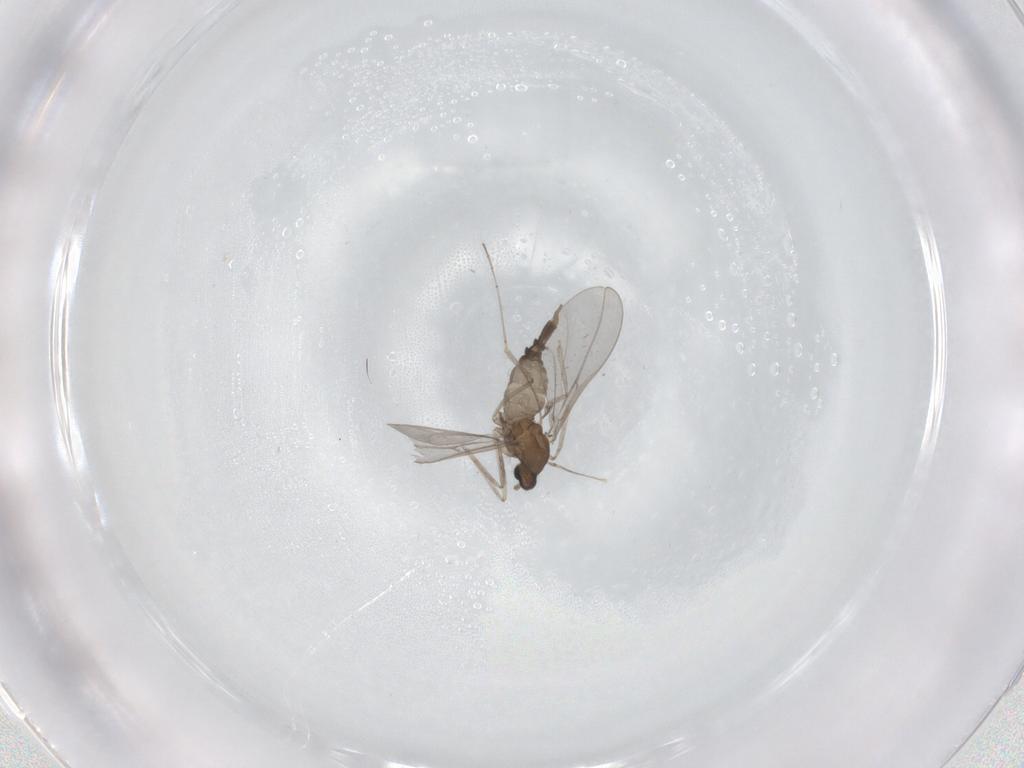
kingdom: Animalia
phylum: Arthropoda
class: Insecta
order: Diptera
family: Cecidomyiidae
